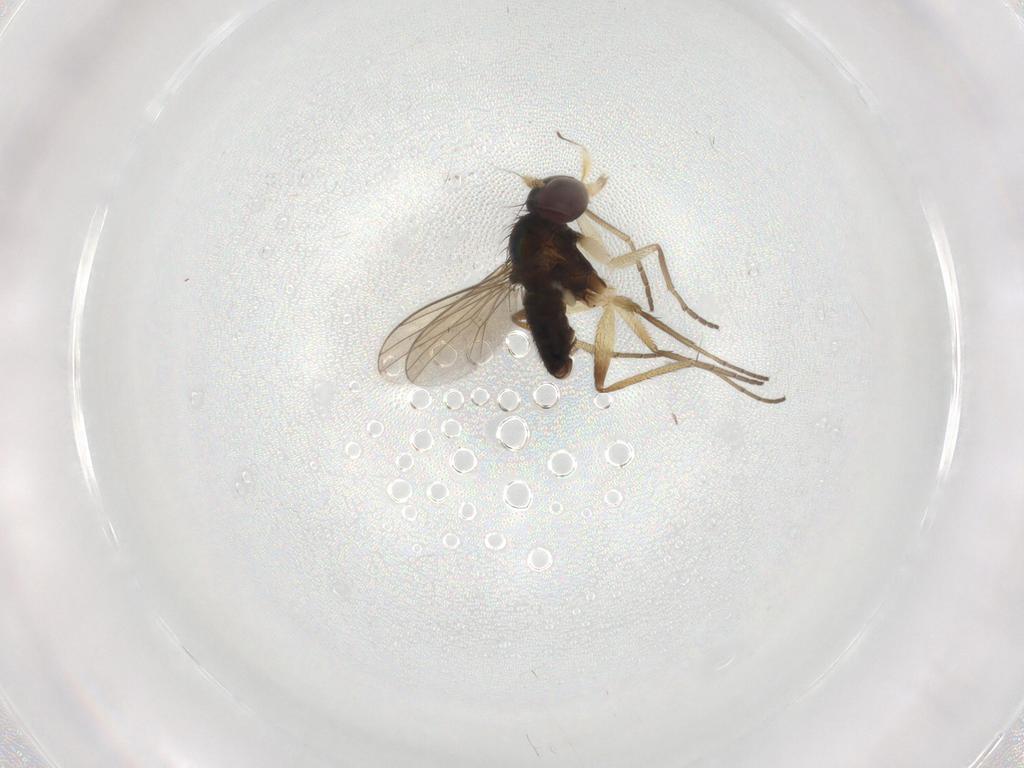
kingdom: Animalia
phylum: Arthropoda
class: Insecta
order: Diptera
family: Dolichopodidae
